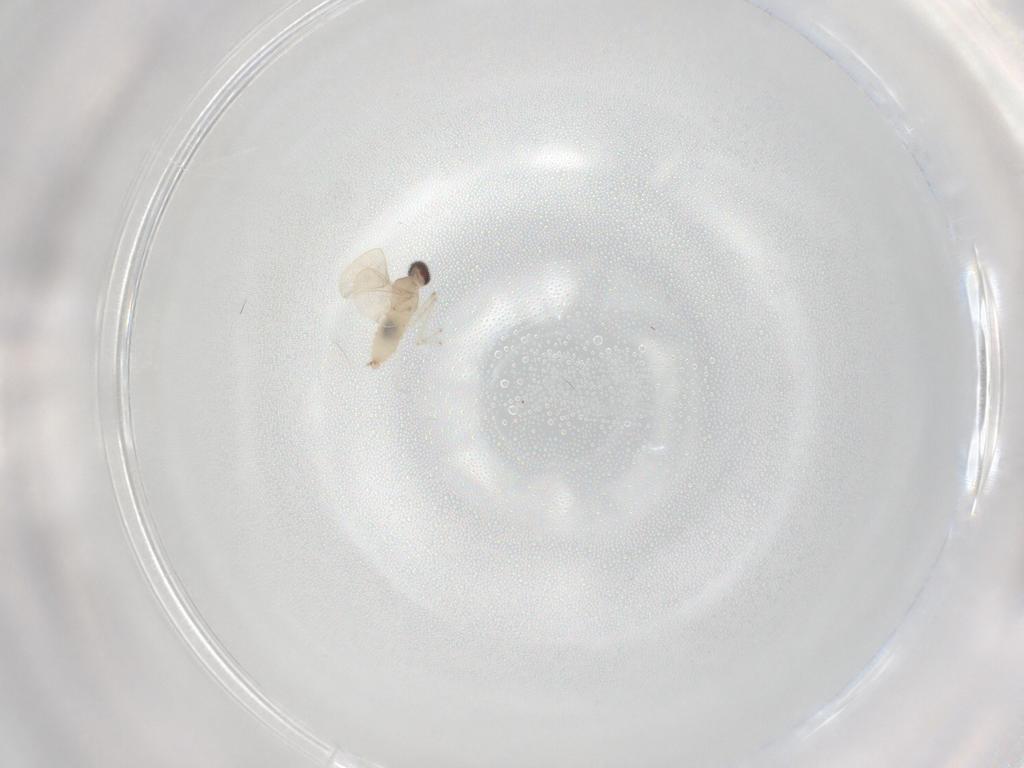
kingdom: Animalia
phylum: Arthropoda
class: Insecta
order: Diptera
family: Cecidomyiidae
